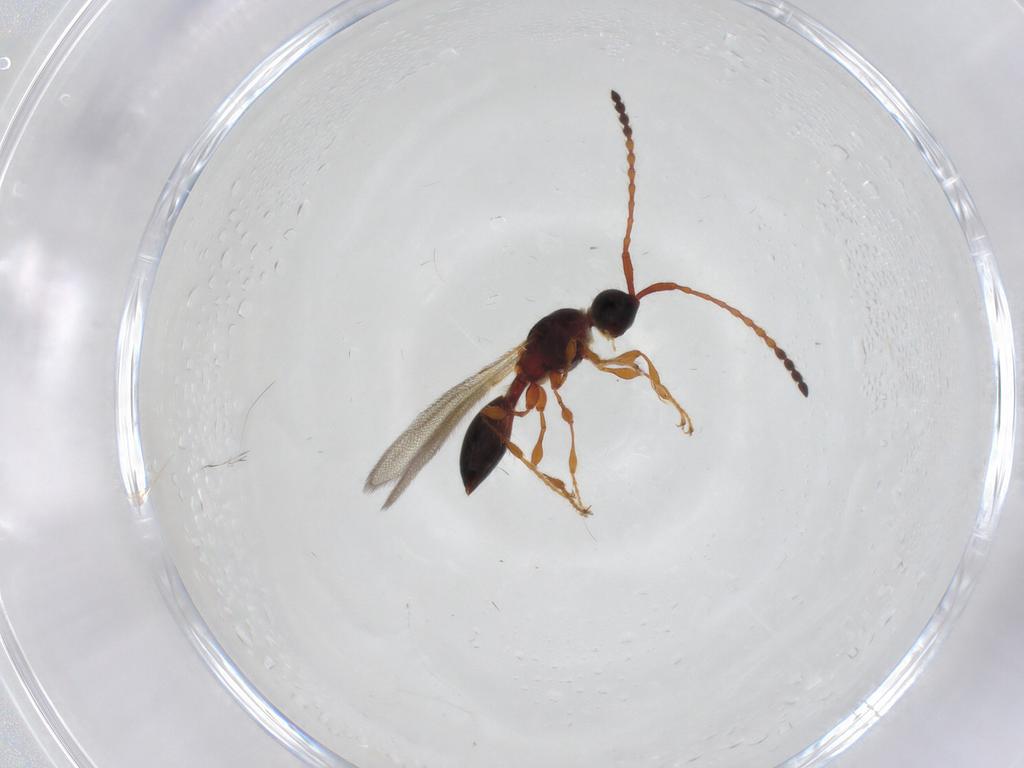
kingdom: Animalia
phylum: Arthropoda
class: Insecta
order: Hymenoptera
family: Diapriidae
